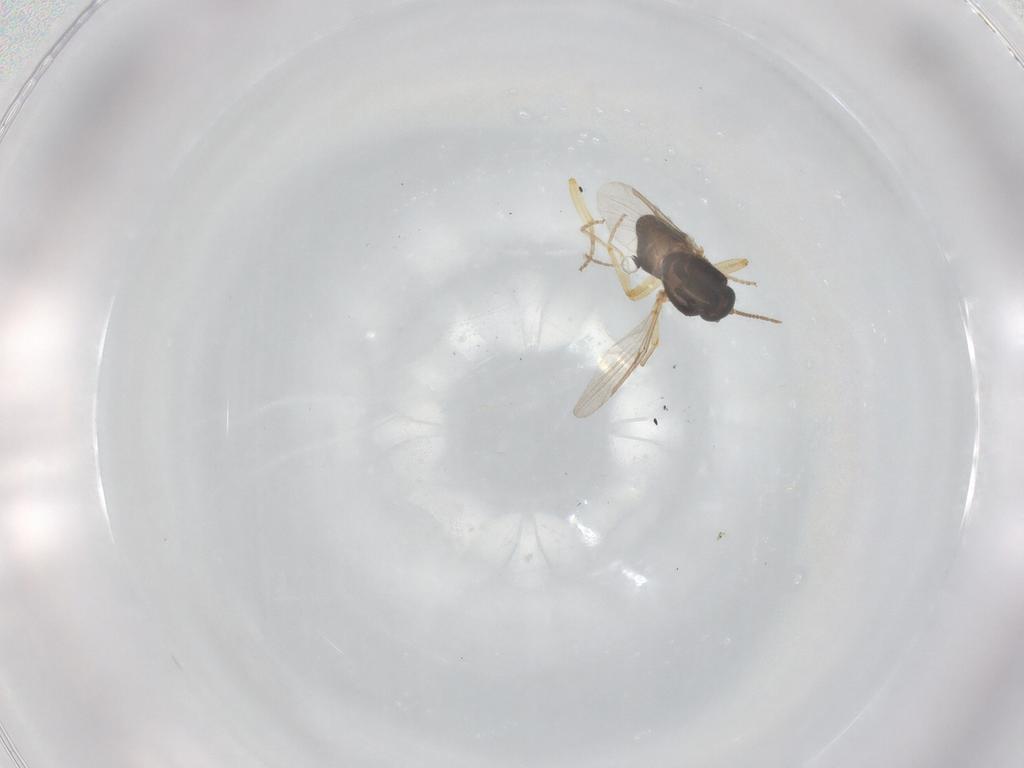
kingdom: Animalia
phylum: Arthropoda
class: Insecta
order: Diptera
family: Ceratopogonidae
